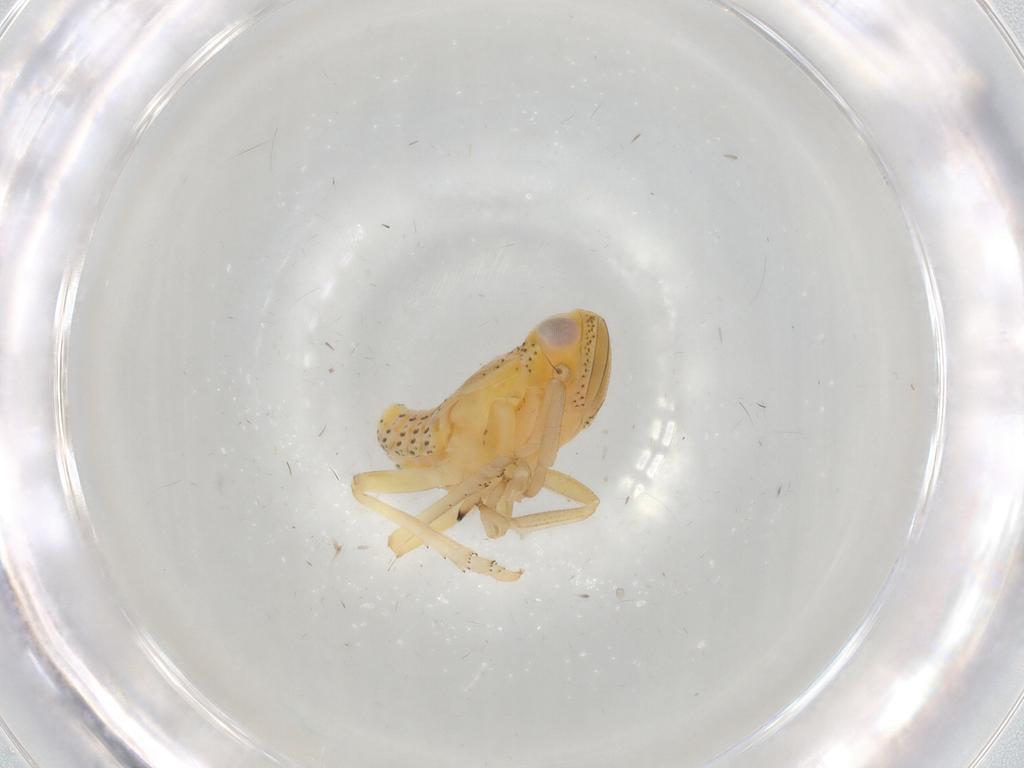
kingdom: Animalia
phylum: Arthropoda
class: Insecta
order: Hemiptera
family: Tropiduchidae
